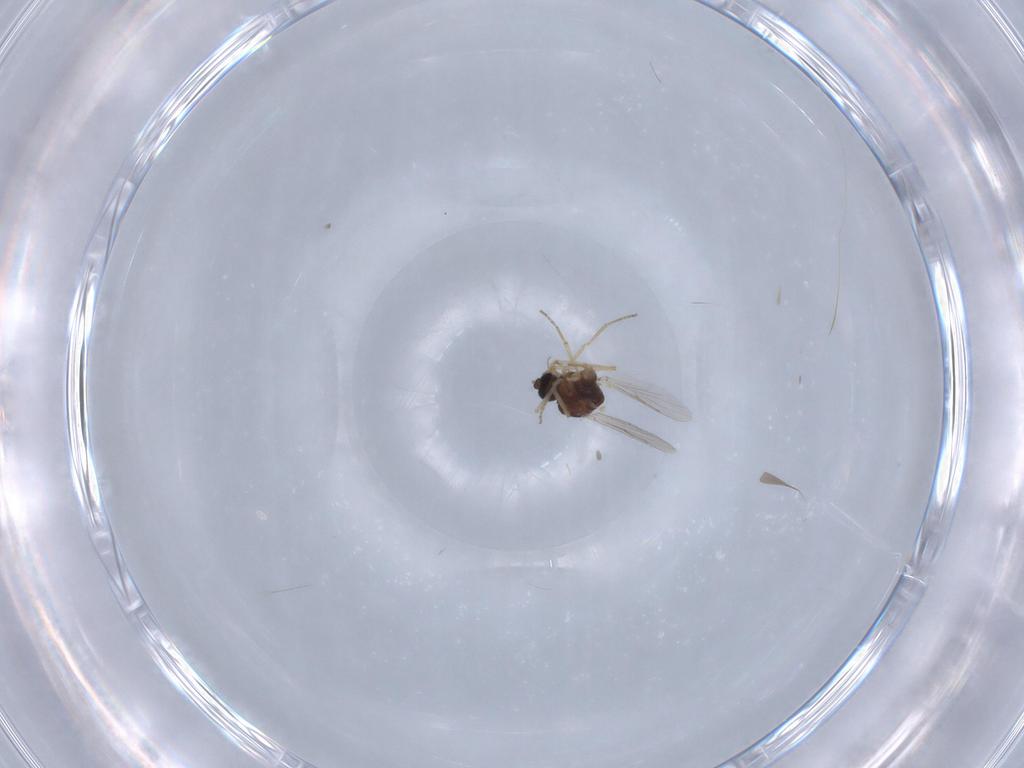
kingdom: Animalia
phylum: Arthropoda
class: Insecta
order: Diptera
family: Ceratopogonidae
